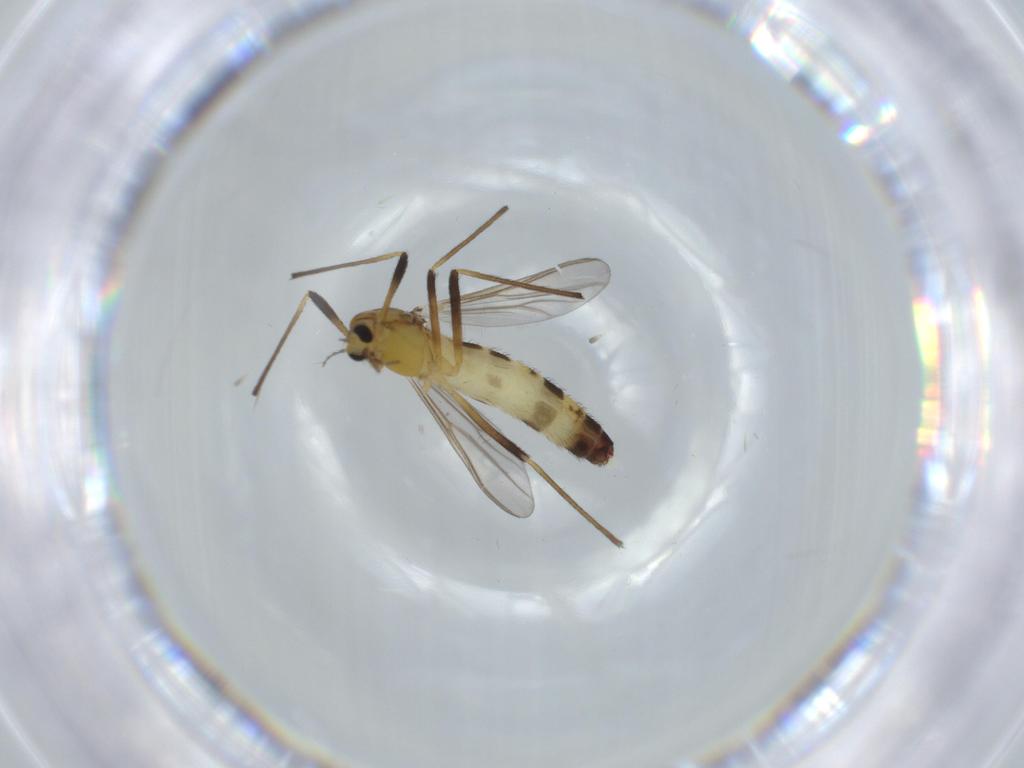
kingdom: Animalia
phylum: Arthropoda
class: Insecta
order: Diptera
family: Chironomidae
